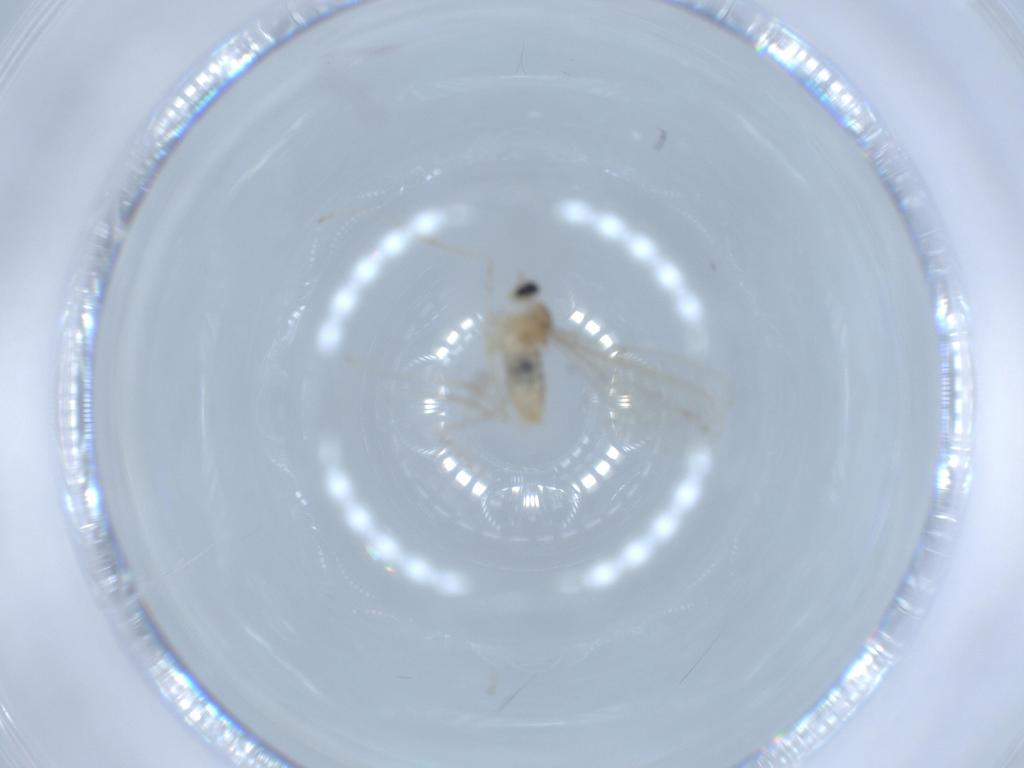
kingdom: Animalia
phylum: Arthropoda
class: Insecta
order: Diptera
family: Cecidomyiidae
